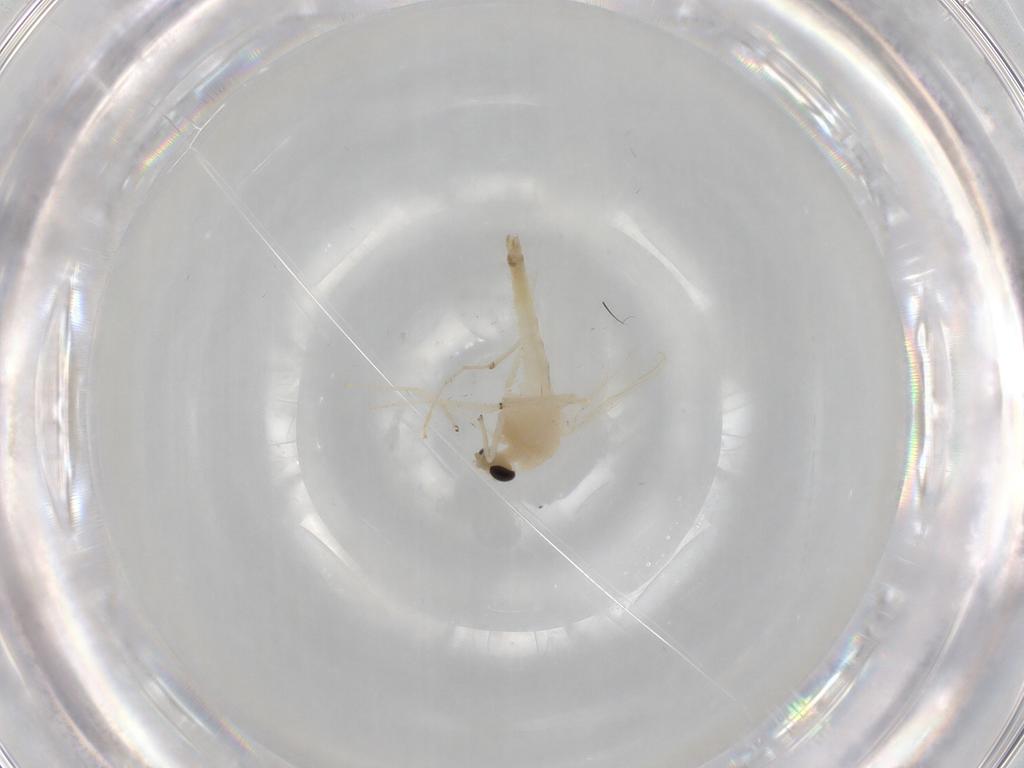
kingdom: Animalia
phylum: Arthropoda
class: Insecta
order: Diptera
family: Chironomidae
